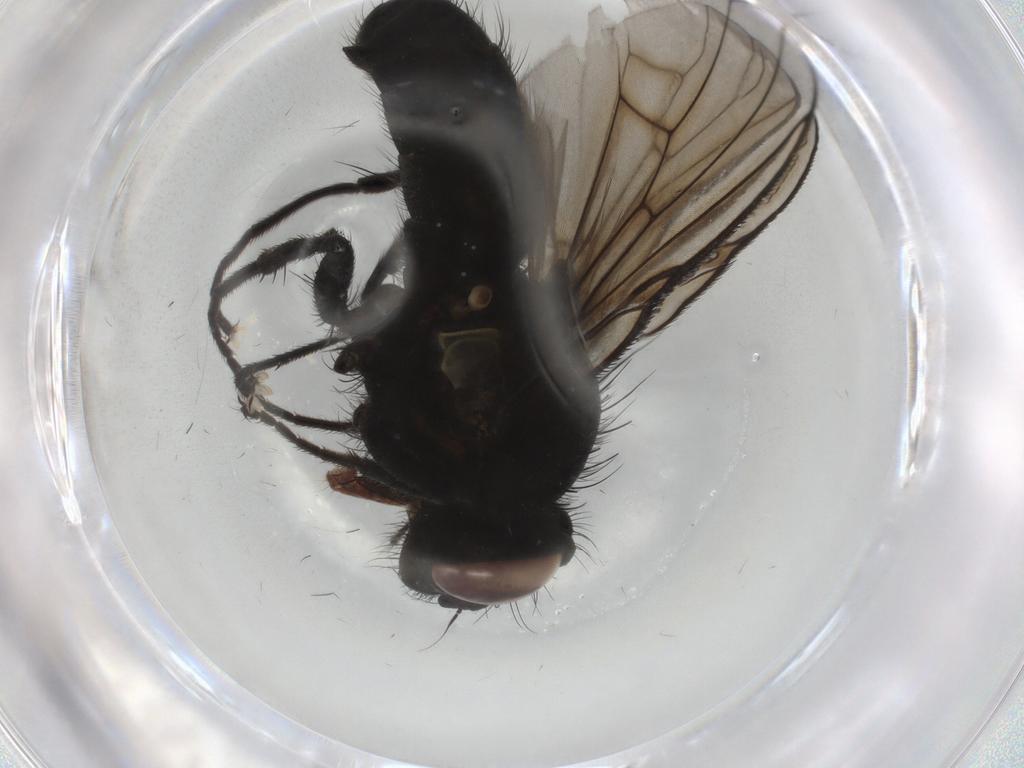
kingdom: Animalia
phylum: Arthropoda
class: Insecta
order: Diptera
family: Muscidae
